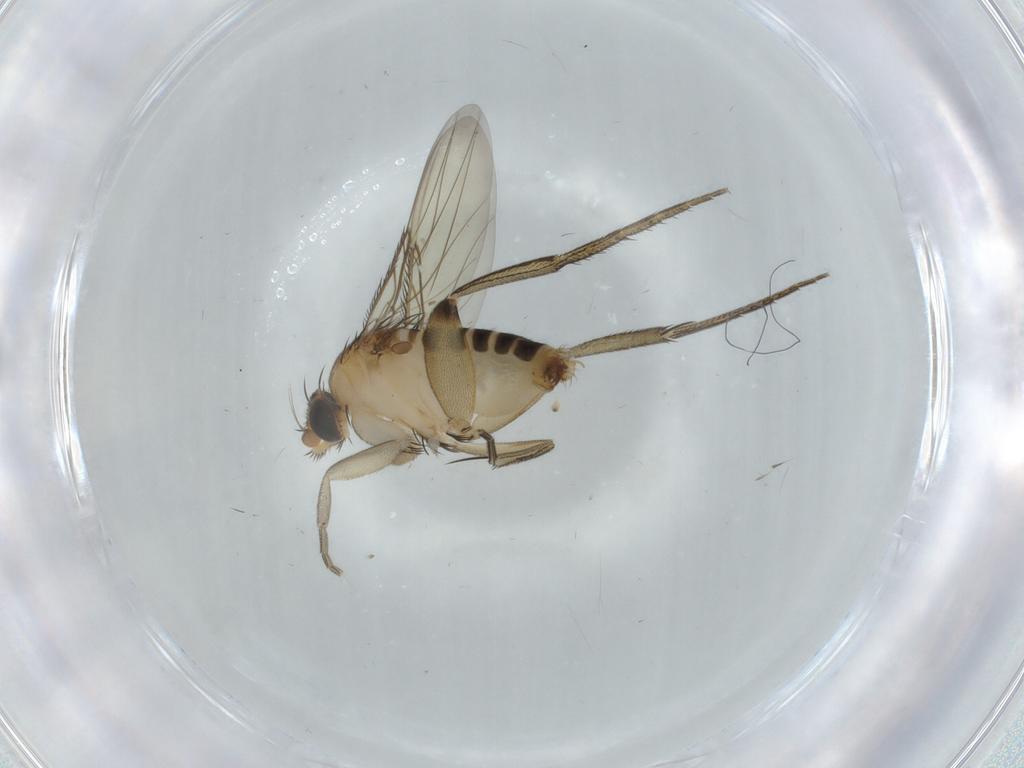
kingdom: Animalia
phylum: Arthropoda
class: Insecta
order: Diptera
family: Phoridae
